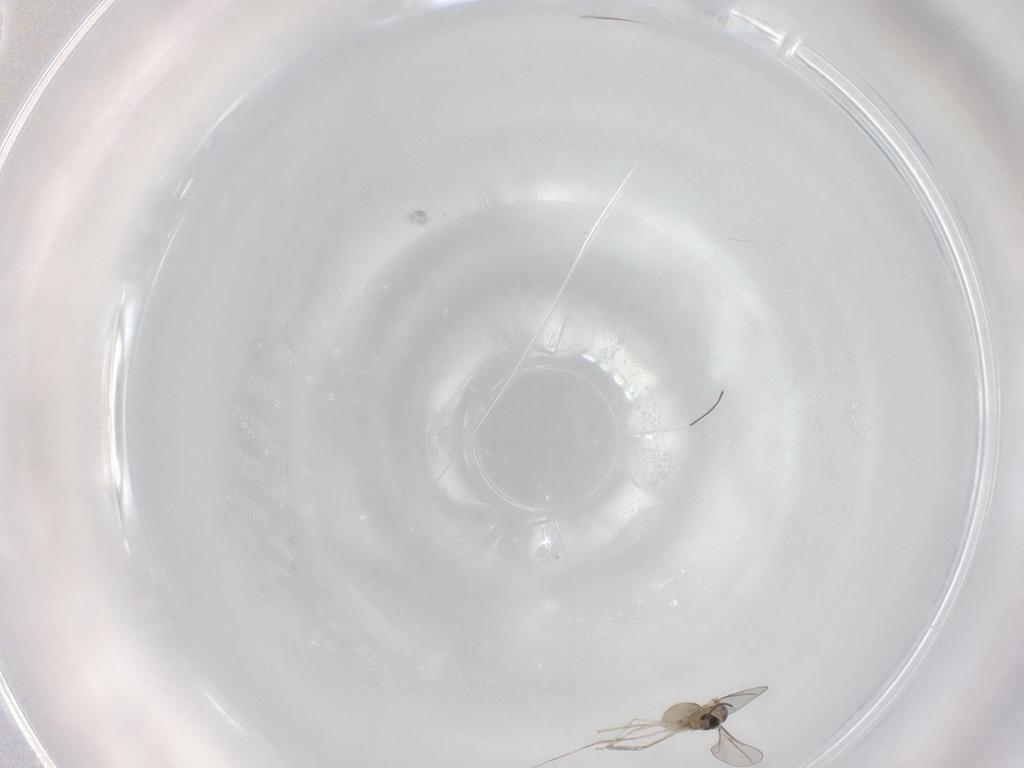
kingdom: Animalia
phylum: Arthropoda
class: Insecta
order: Diptera
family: Cecidomyiidae
